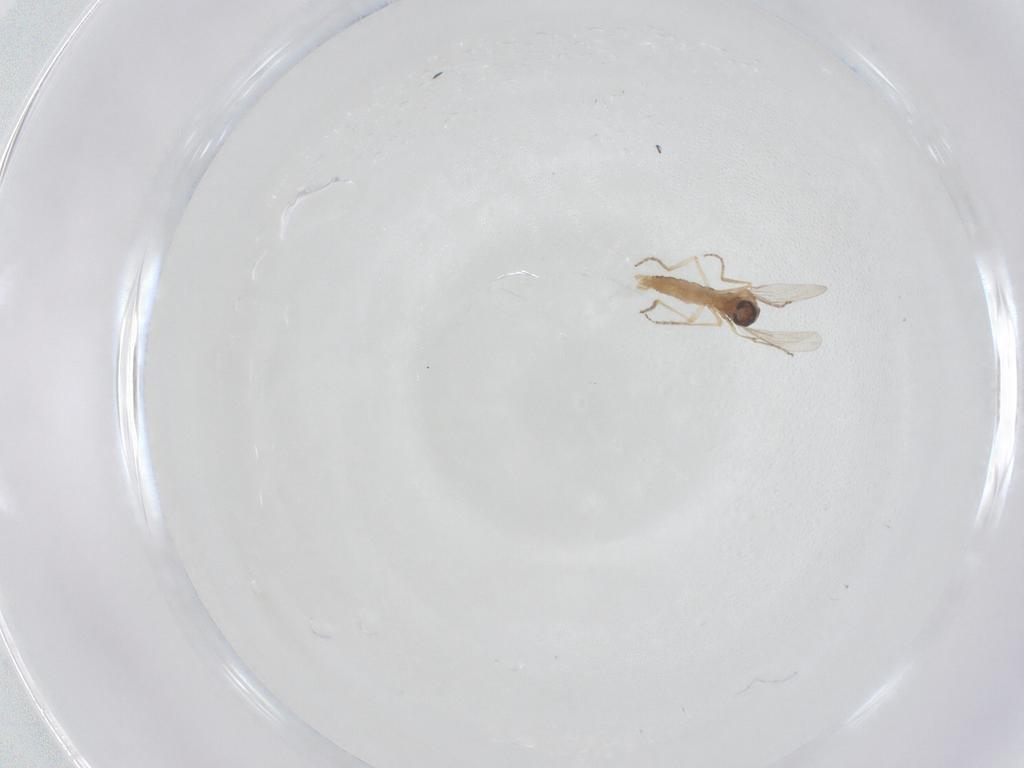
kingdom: Animalia
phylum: Arthropoda
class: Insecta
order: Diptera
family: Ceratopogonidae
